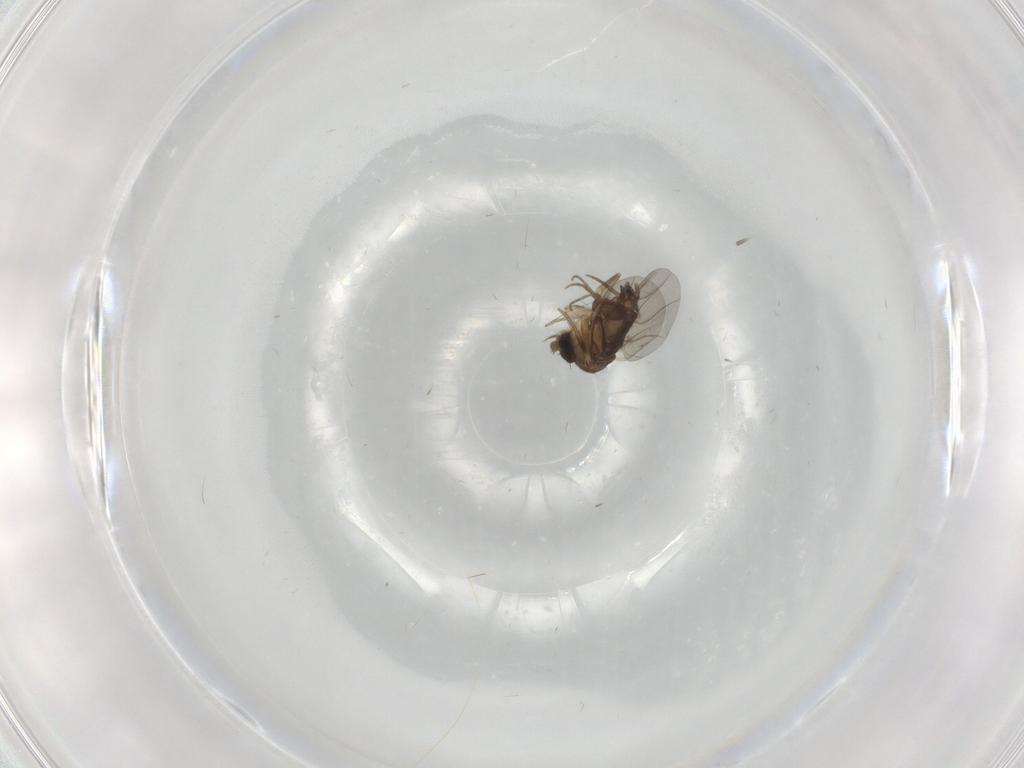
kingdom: Animalia
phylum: Arthropoda
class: Insecta
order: Diptera
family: Phoridae
